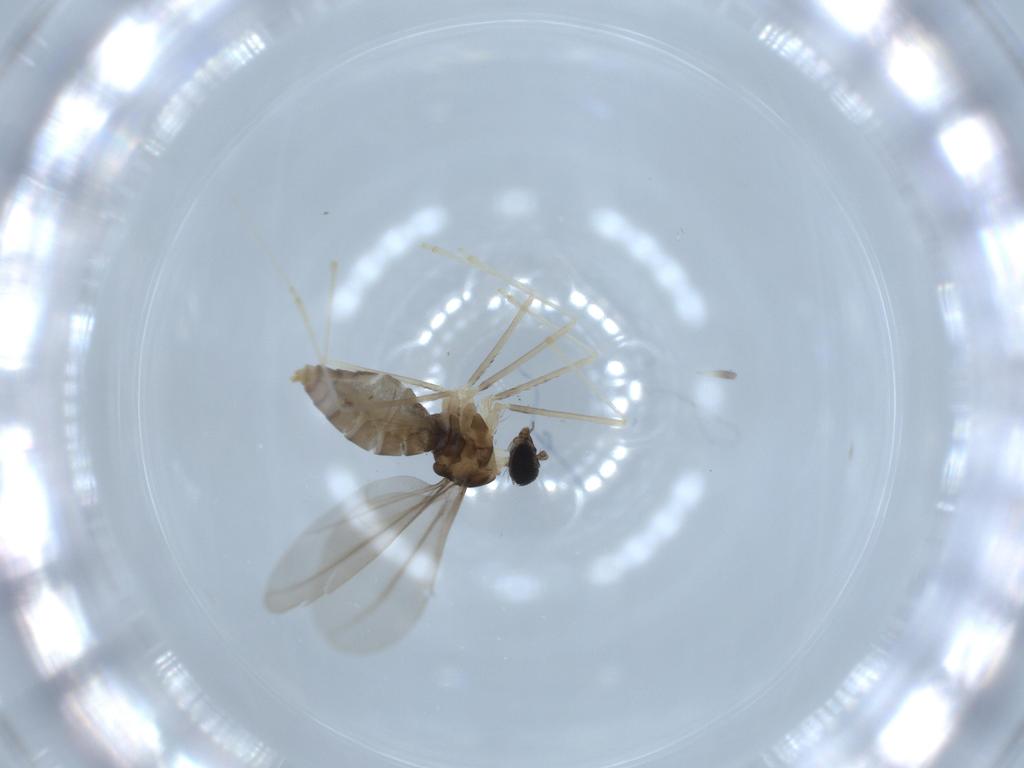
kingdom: Animalia
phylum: Arthropoda
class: Insecta
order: Diptera
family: Cecidomyiidae
